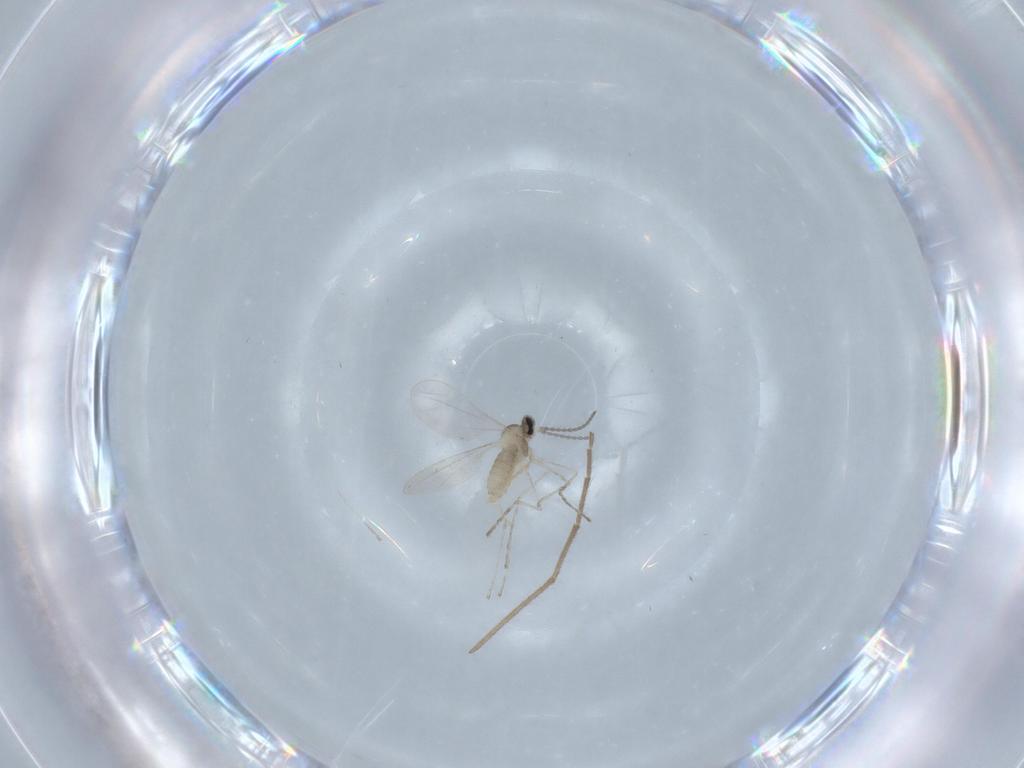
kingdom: Animalia
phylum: Arthropoda
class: Insecta
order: Diptera
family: Chironomidae
